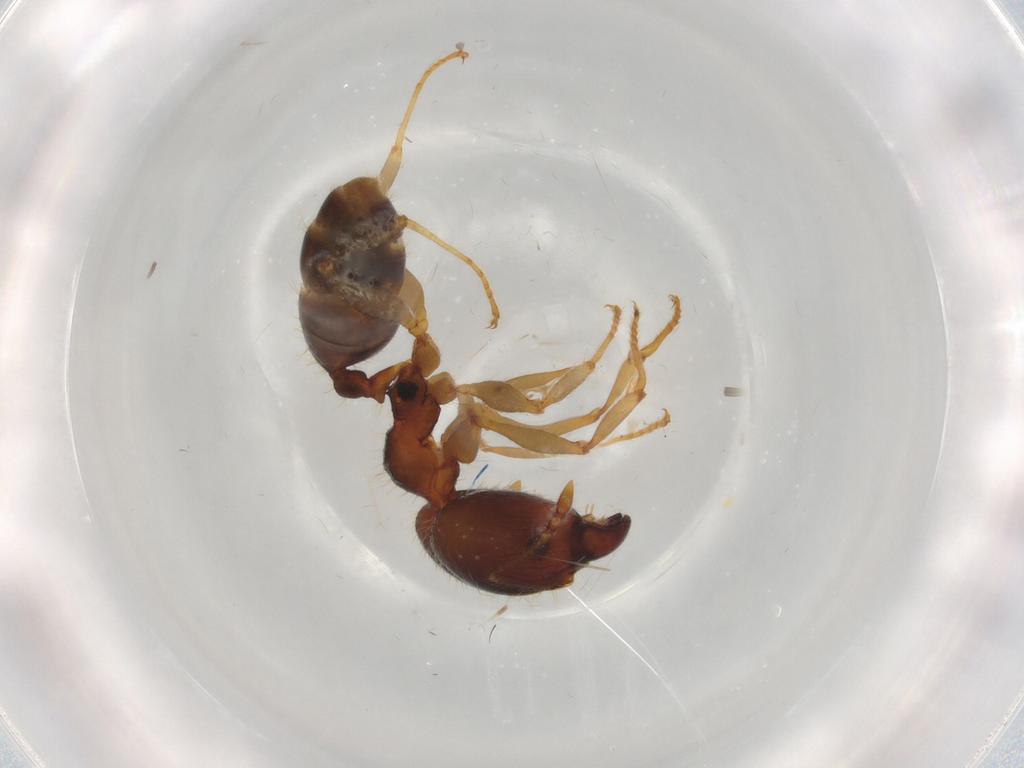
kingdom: Animalia
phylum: Arthropoda
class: Insecta
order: Hymenoptera
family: Formicidae
